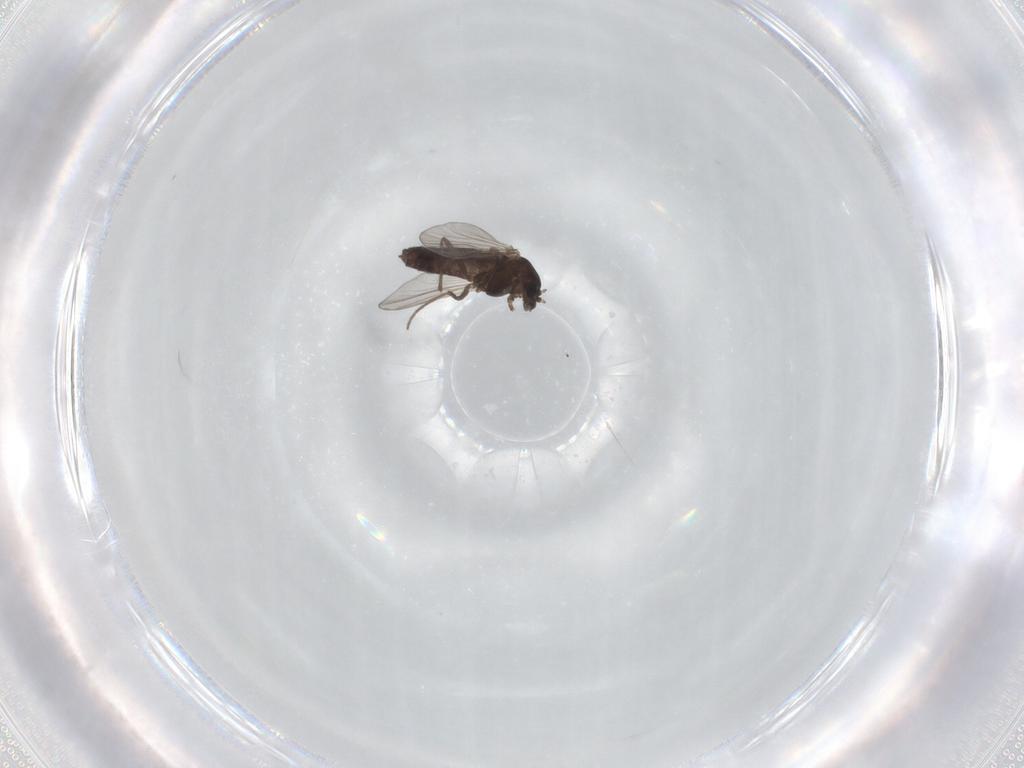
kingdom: Animalia
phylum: Arthropoda
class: Insecta
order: Diptera
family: Chironomidae
